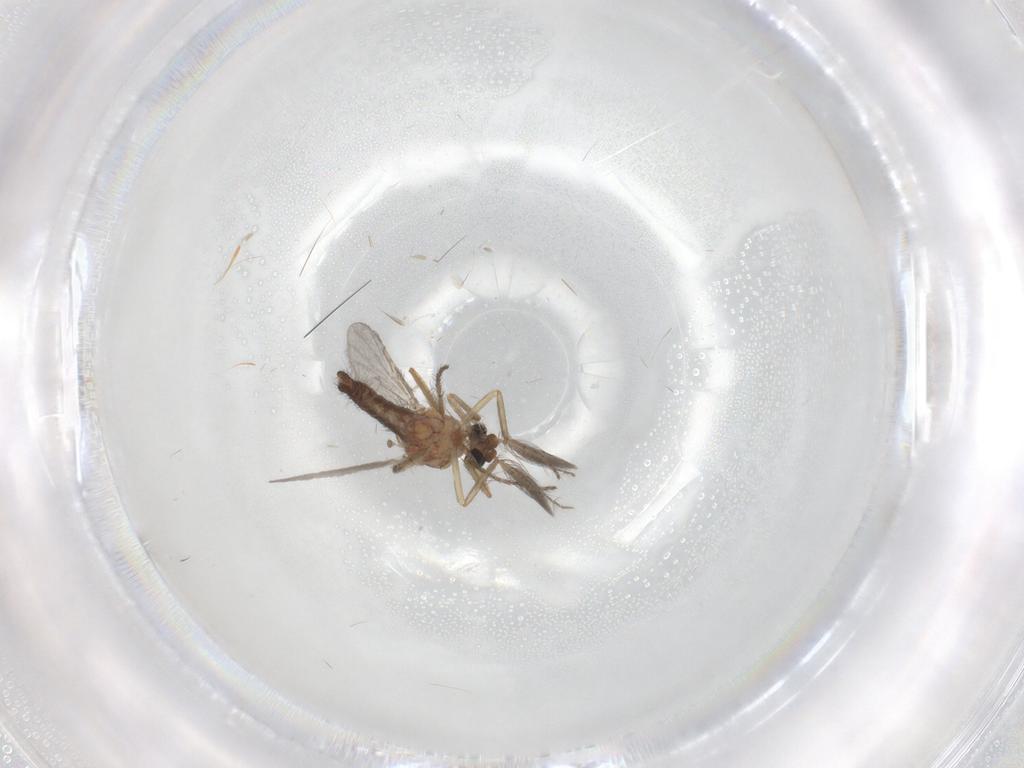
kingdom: Animalia
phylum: Arthropoda
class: Insecta
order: Diptera
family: Ceratopogonidae
